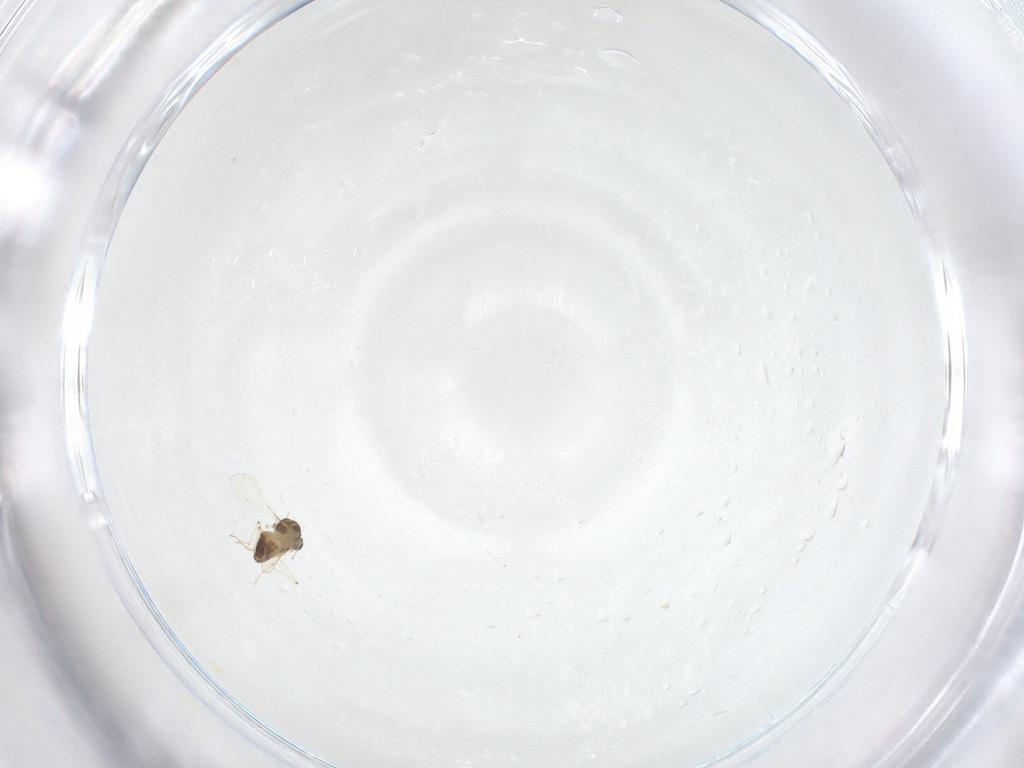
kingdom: Animalia
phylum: Arthropoda
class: Insecta
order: Diptera
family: Chironomidae
